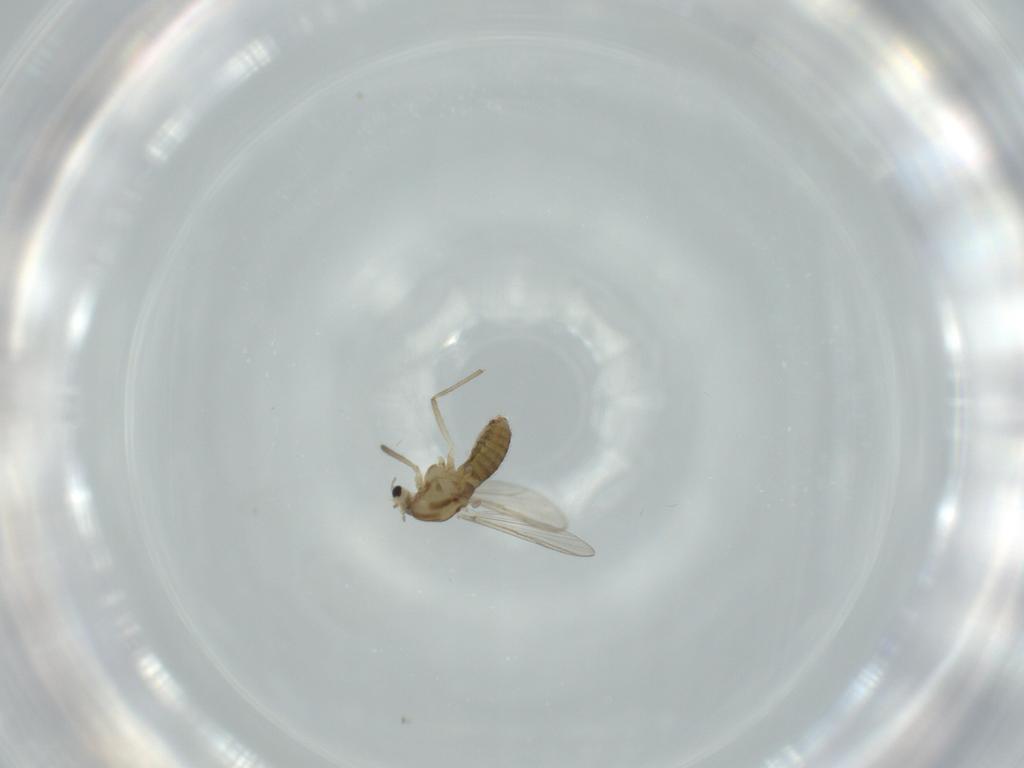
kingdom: Animalia
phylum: Arthropoda
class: Insecta
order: Diptera
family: Chironomidae
